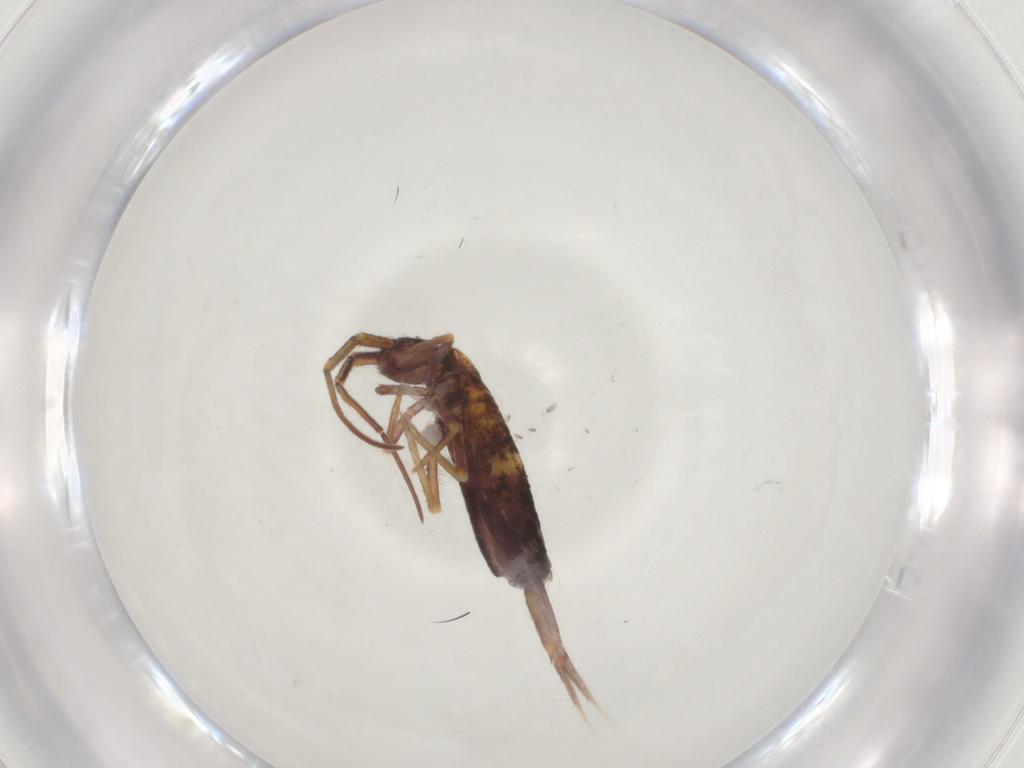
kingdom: Animalia
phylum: Arthropoda
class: Collembola
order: Entomobryomorpha
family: Entomobryidae
